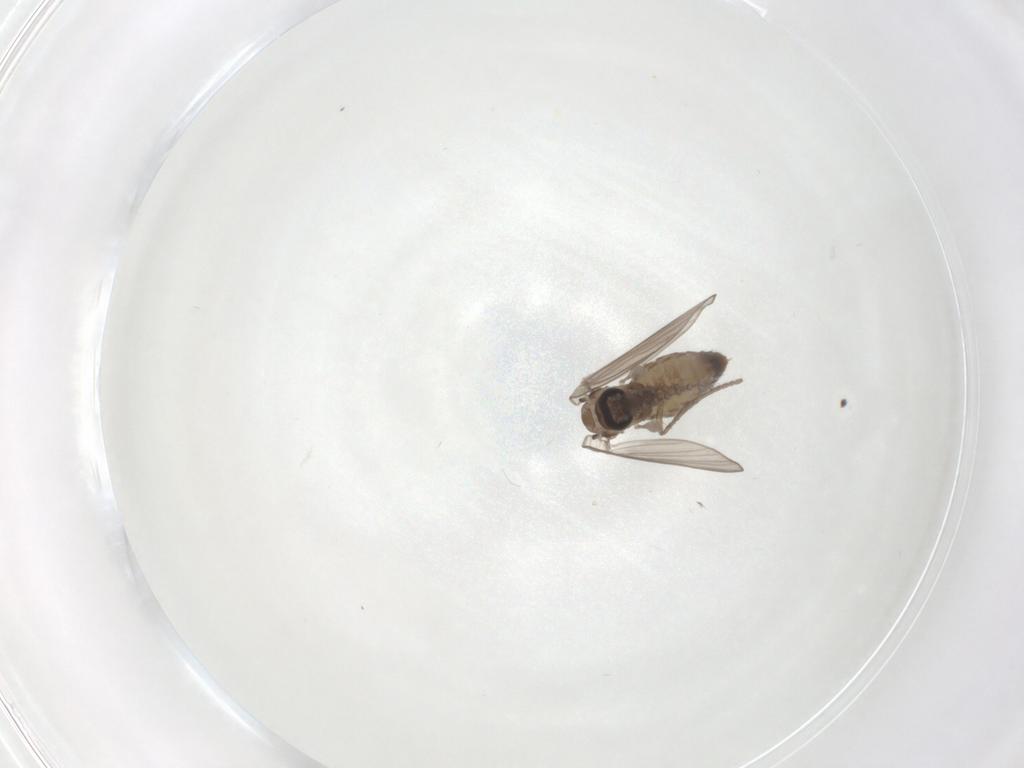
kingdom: Animalia
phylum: Arthropoda
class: Insecta
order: Diptera
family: Psychodidae
